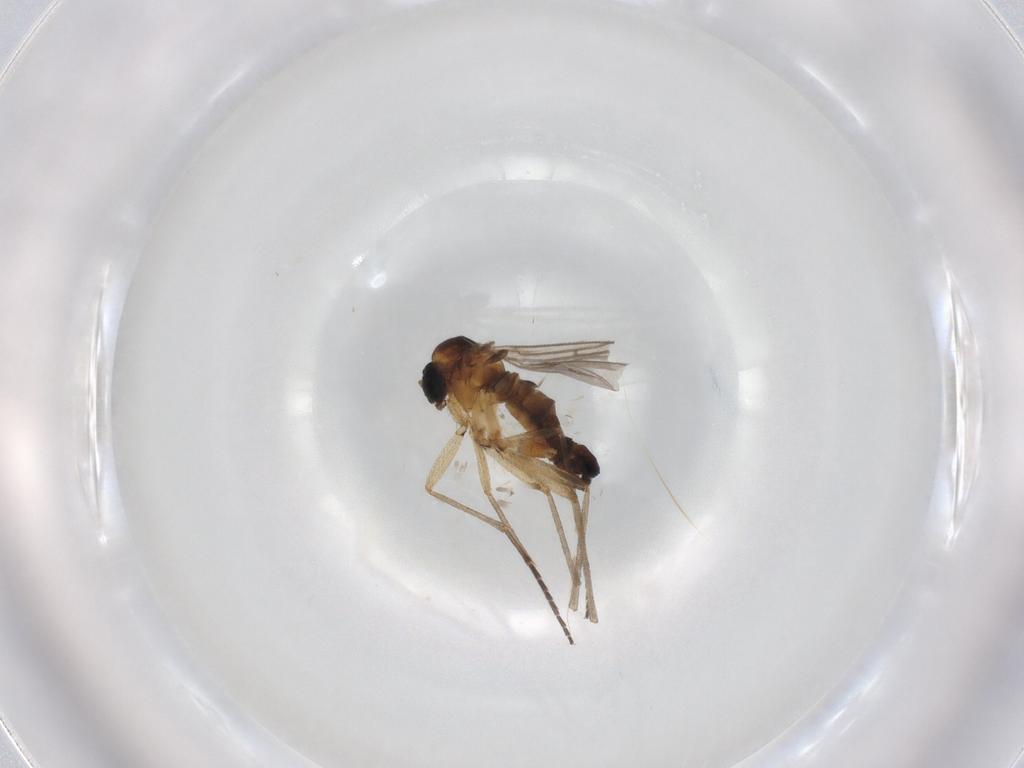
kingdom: Animalia
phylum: Arthropoda
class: Insecta
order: Diptera
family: Sciaridae
